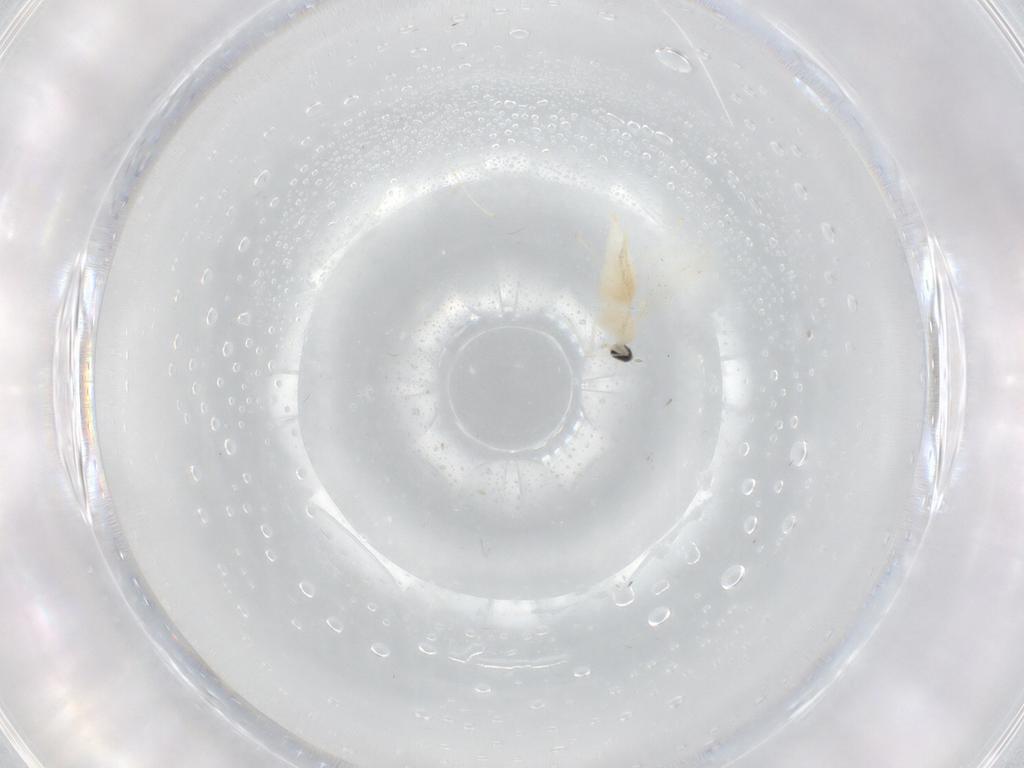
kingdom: Animalia
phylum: Arthropoda
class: Insecta
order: Diptera
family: Cecidomyiidae
